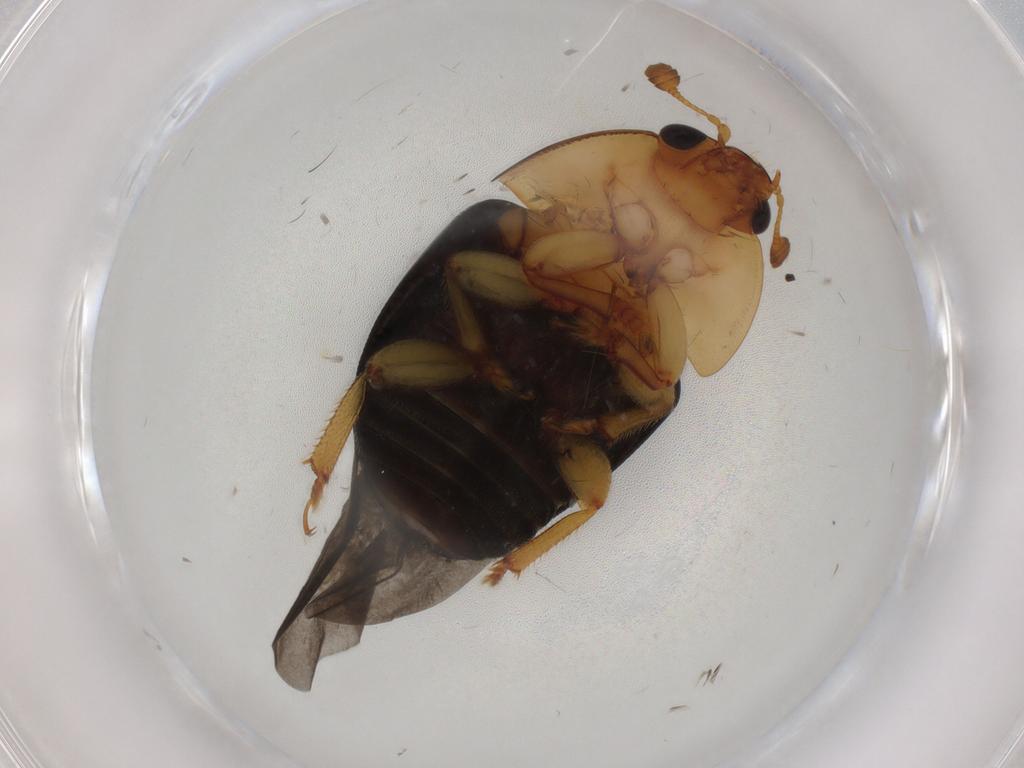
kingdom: Animalia
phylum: Arthropoda
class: Insecta
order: Coleoptera
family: Nitidulidae
